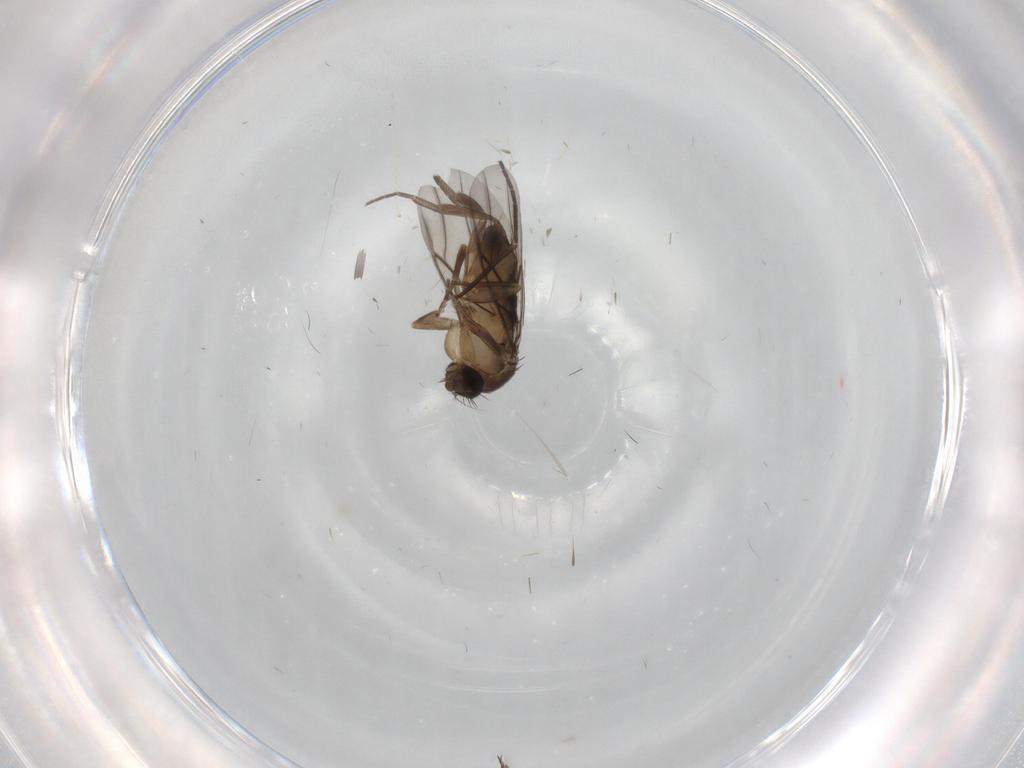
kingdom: Animalia
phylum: Arthropoda
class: Insecta
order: Diptera
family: Phoridae
